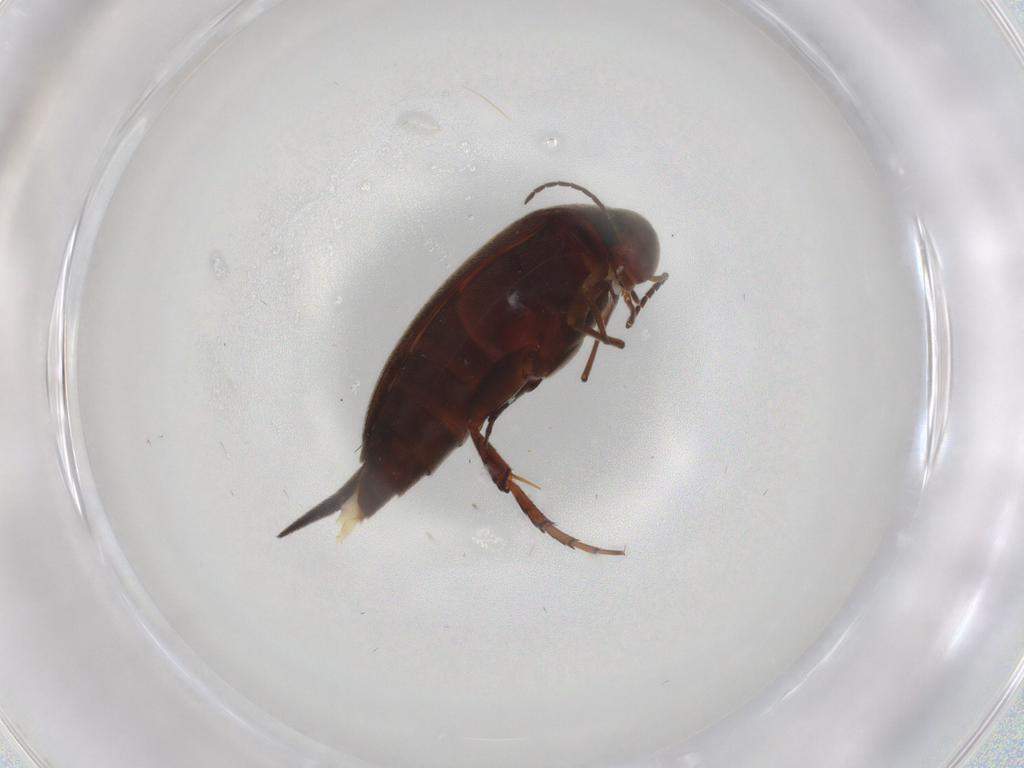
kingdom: Animalia
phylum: Arthropoda
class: Insecta
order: Coleoptera
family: Mordellidae
